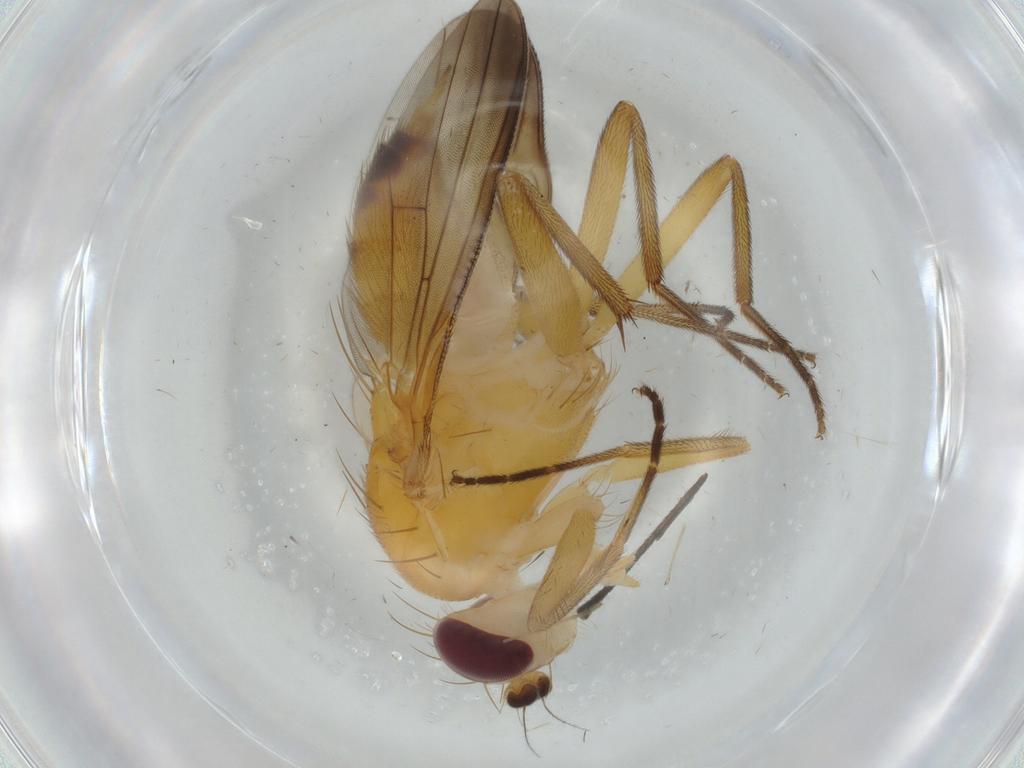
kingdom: Animalia
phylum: Arthropoda
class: Insecta
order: Diptera
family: Clusiidae
